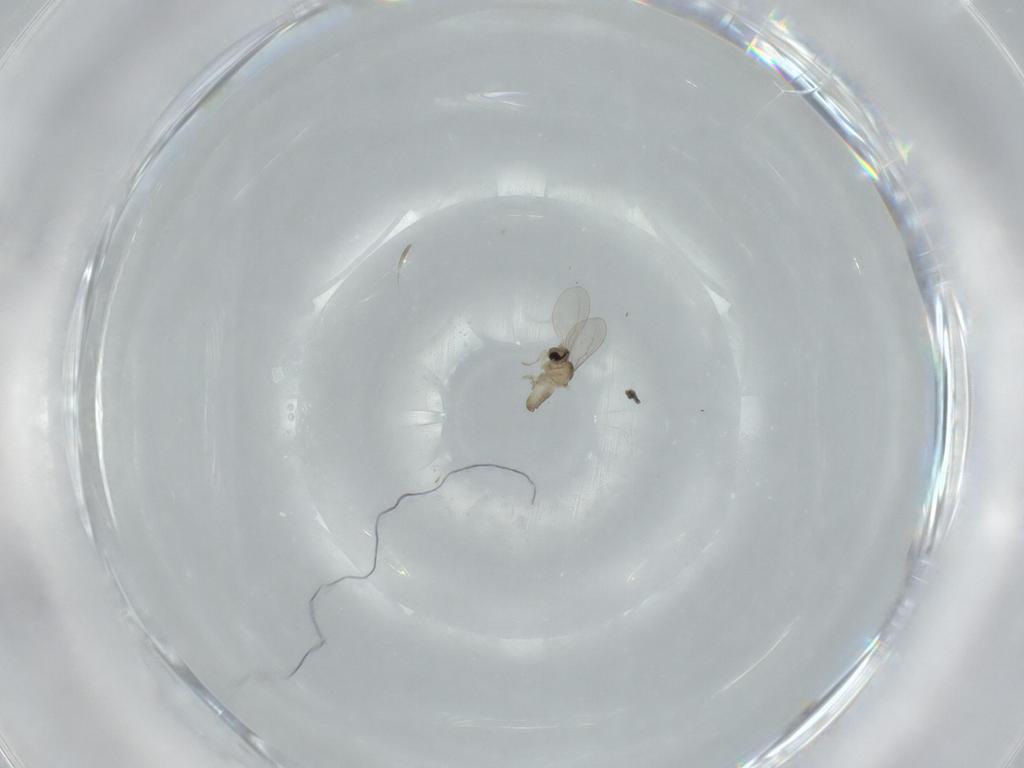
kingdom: Animalia
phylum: Arthropoda
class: Insecta
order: Diptera
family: Cecidomyiidae
